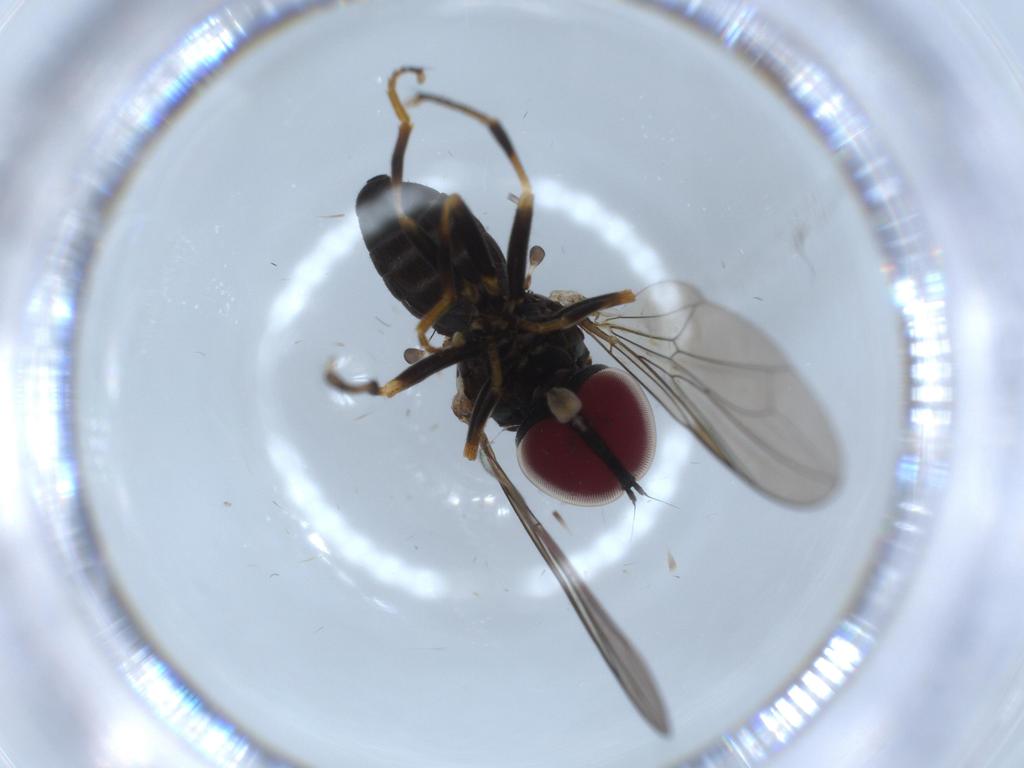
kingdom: Animalia
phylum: Arthropoda
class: Insecta
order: Diptera
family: Pipunculidae
